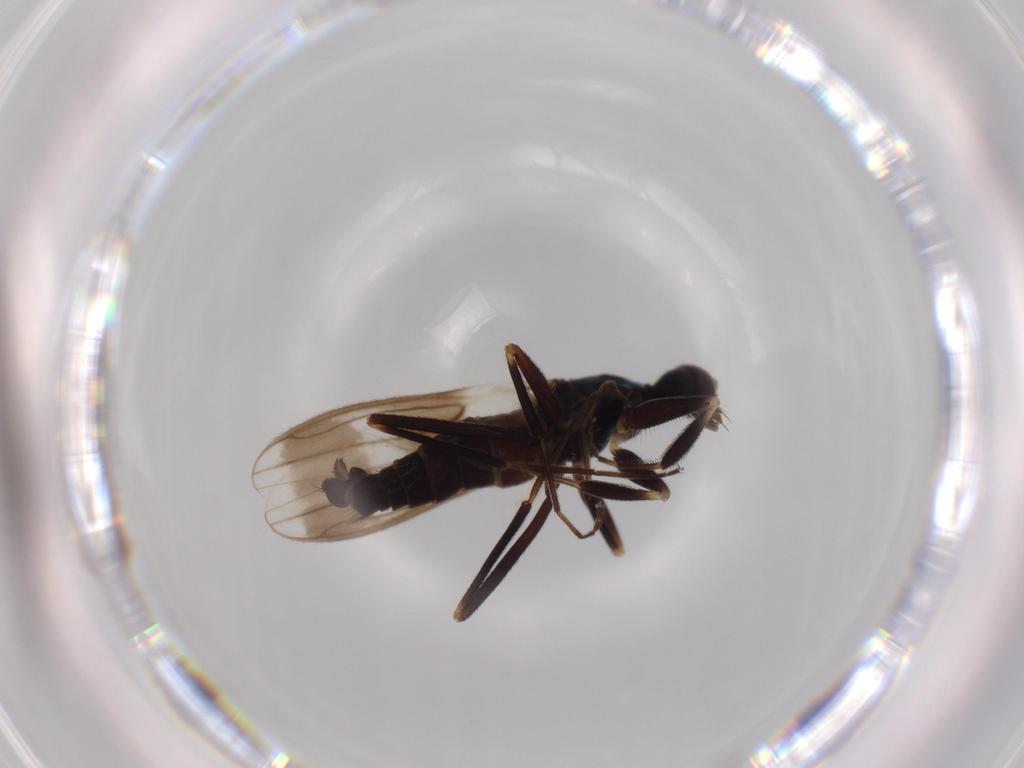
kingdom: Animalia
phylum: Arthropoda
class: Insecta
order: Diptera
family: Hybotidae
